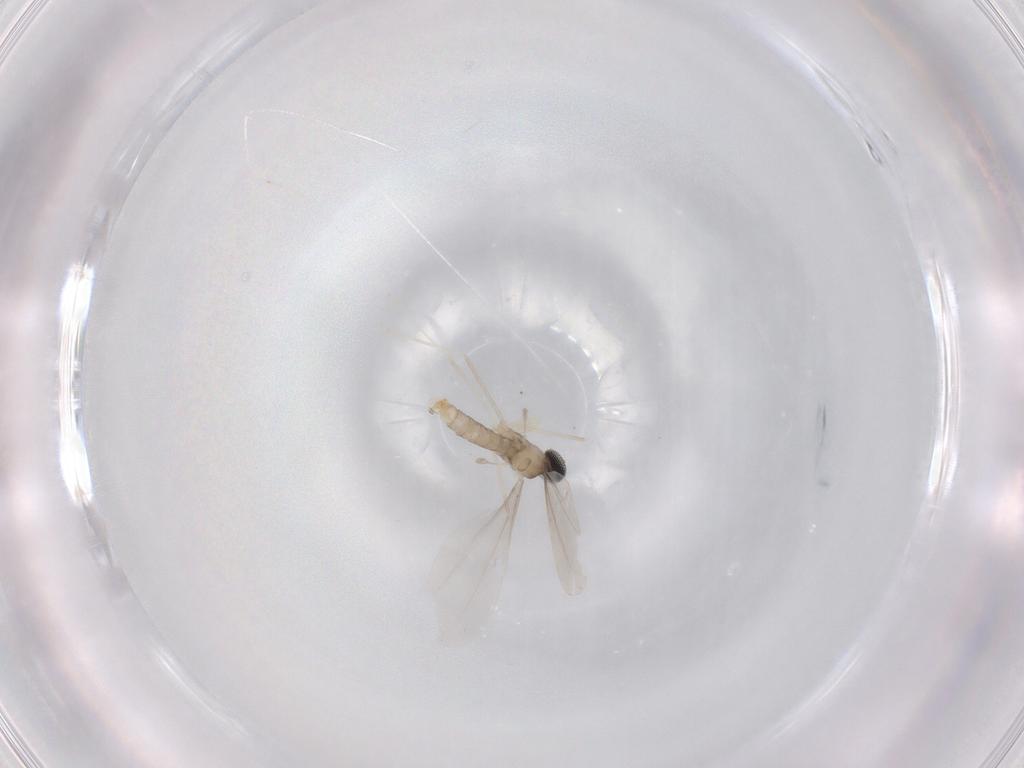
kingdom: Animalia
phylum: Arthropoda
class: Insecta
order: Diptera
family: Cecidomyiidae
